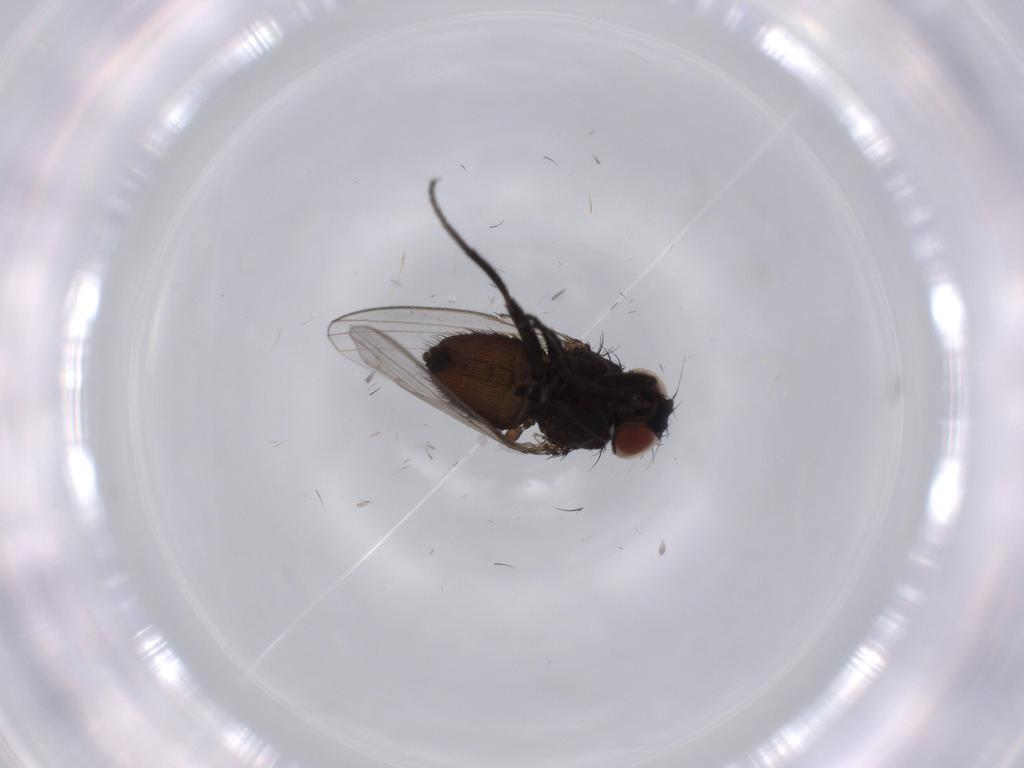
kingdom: Animalia
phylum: Arthropoda
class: Insecta
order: Diptera
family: Milichiidae
